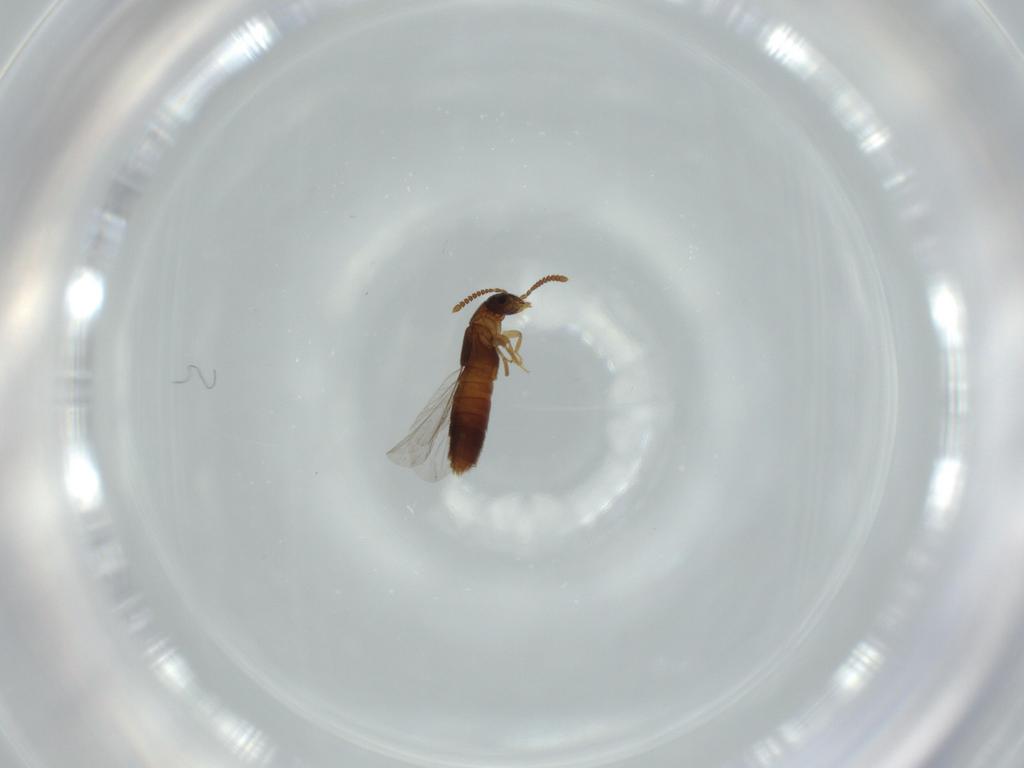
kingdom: Animalia
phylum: Arthropoda
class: Insecta
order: Coleoptera
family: Staphylinidae
